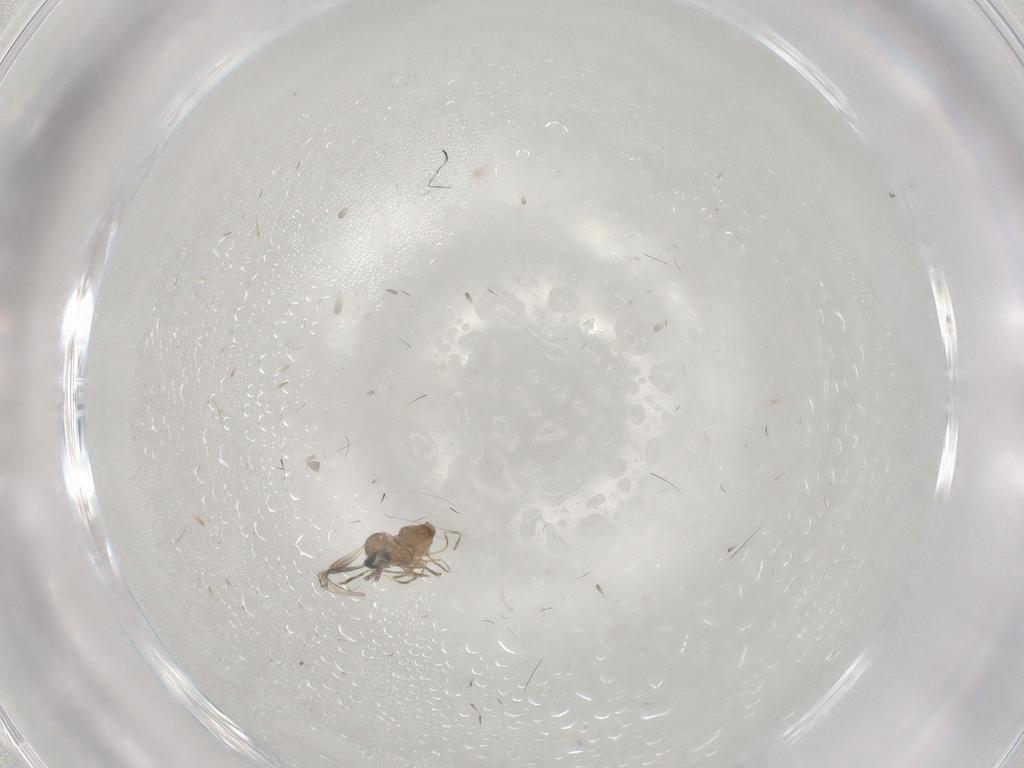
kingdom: Animalia
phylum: Arthropoda
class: Insecta
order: Diptera
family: Cecidomyiidae
